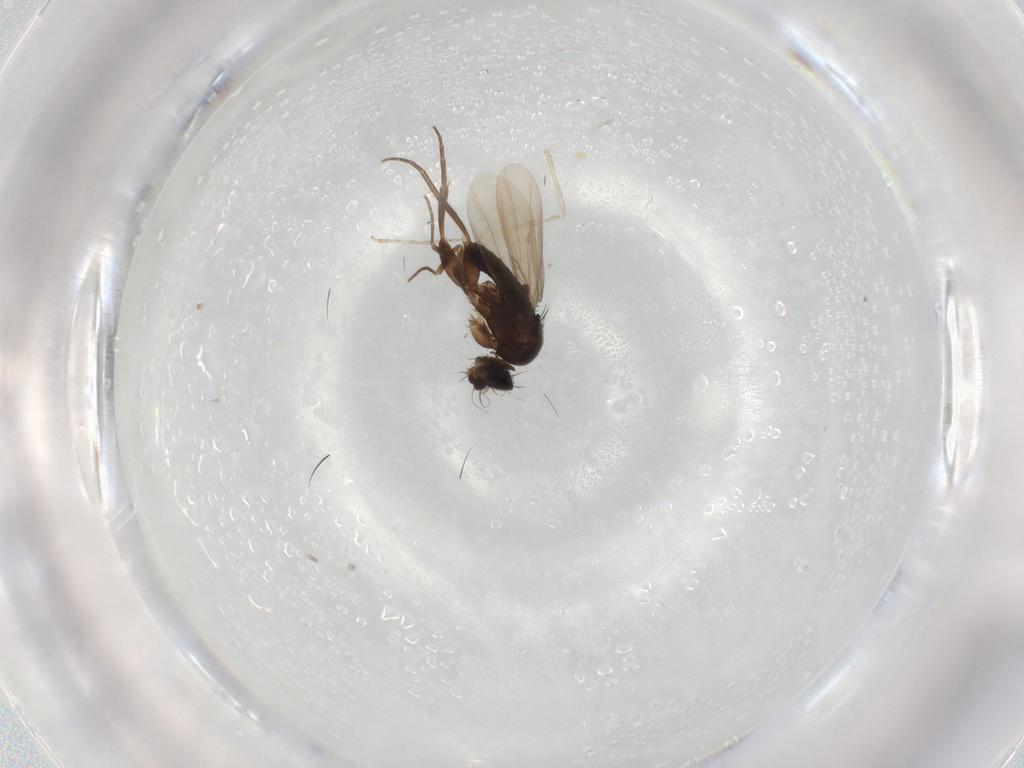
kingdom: Animalia
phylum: Arthropoda
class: Insecta
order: Diptera
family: Phoridae
